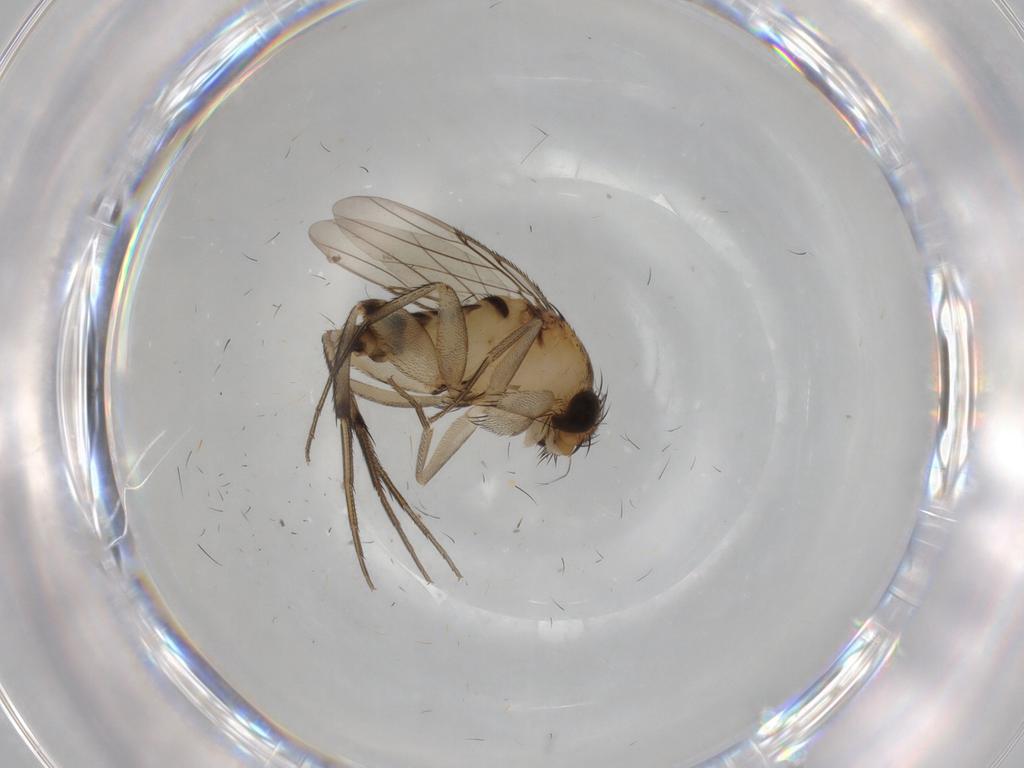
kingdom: Animalia
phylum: Arthropoda
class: Insecta
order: Diptera
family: Phoridae
